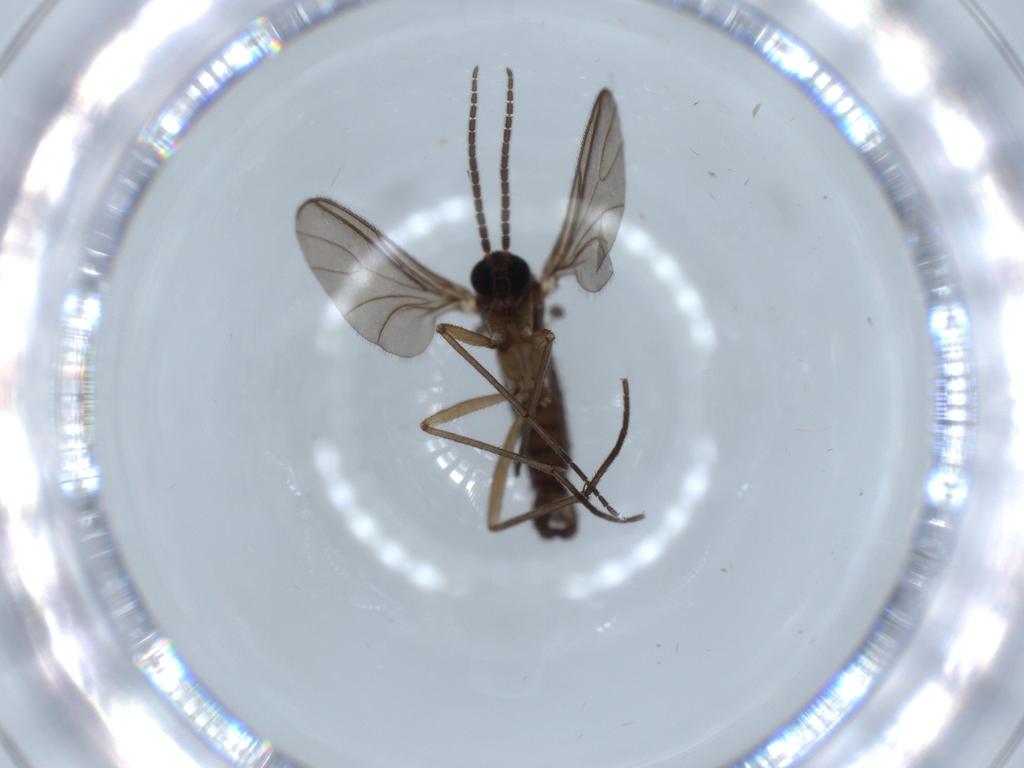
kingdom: Animalia
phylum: Arthropoda
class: Insecta
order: Diptera
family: Sciaridae
